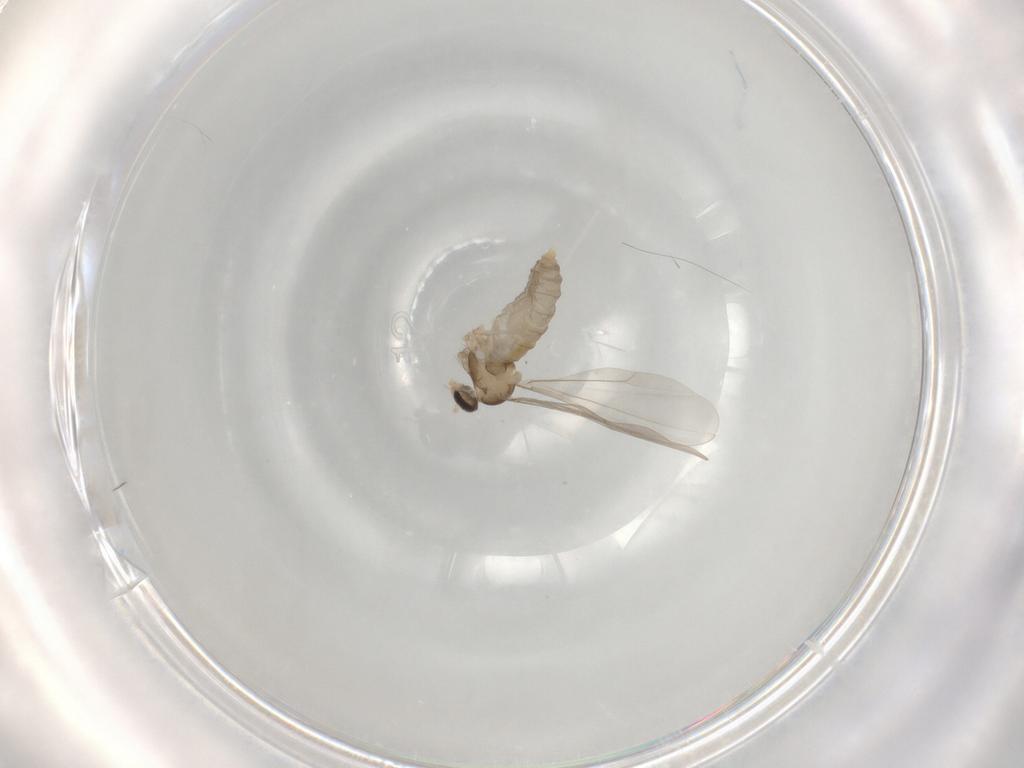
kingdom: Animalia
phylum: Arthropoda
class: Insecta
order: Diptera
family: Limoniidae
